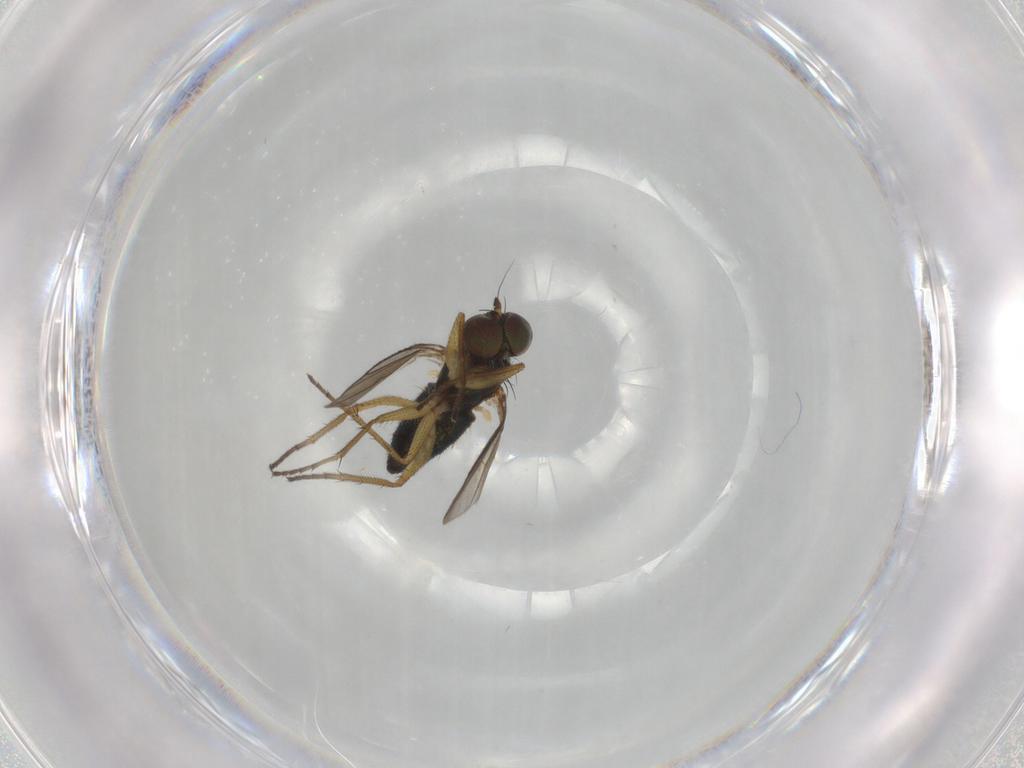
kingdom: Animalia
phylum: Arthropoda
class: Insecta
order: Diptera
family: Dolichopodidae
